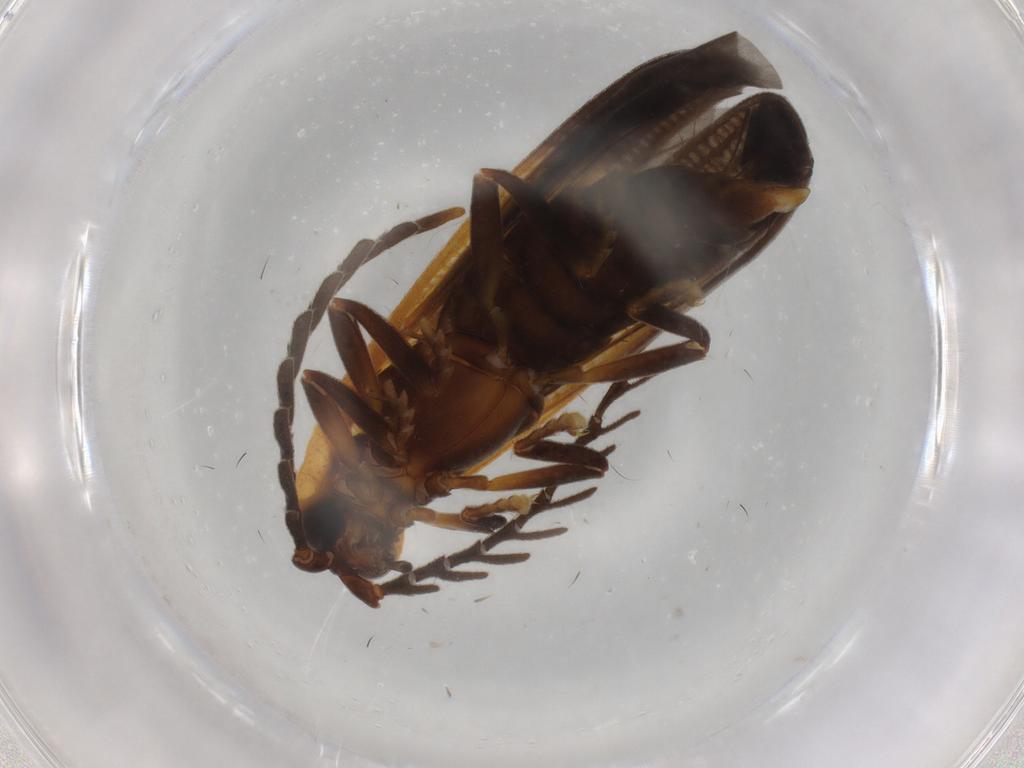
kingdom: Animalia
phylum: Arthropoda
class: Insecta
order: Coleoptera
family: Lycidae
